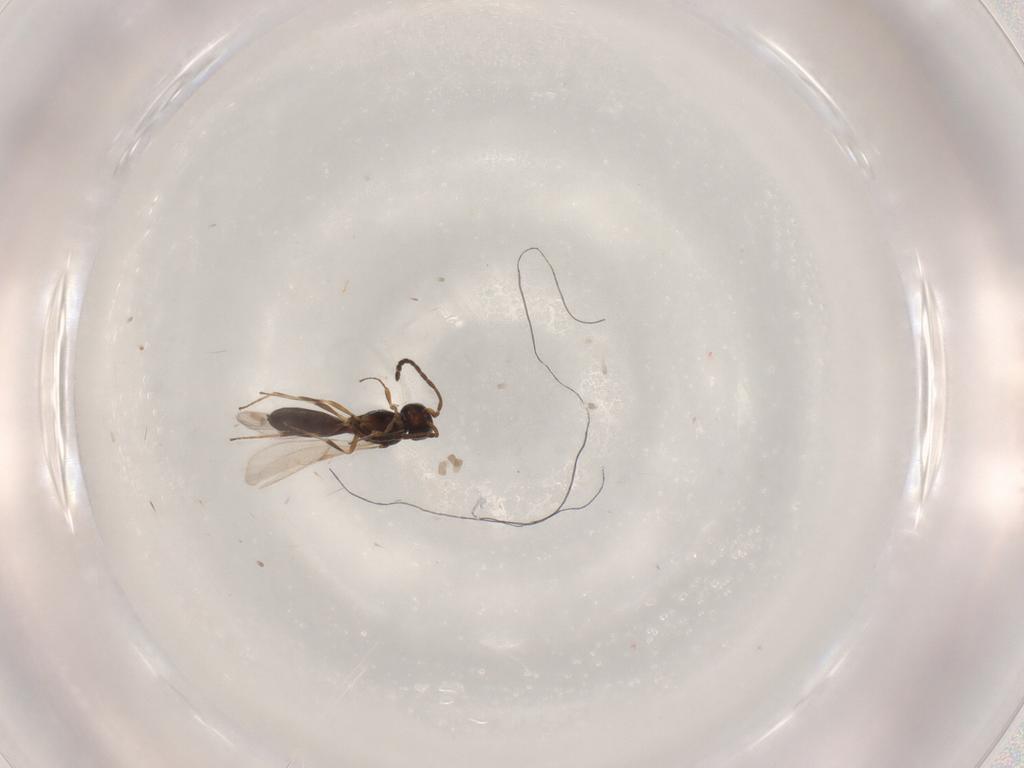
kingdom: Animalia
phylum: Arthropoda
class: Insecta
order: Hymenoptera
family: Scelionidae
